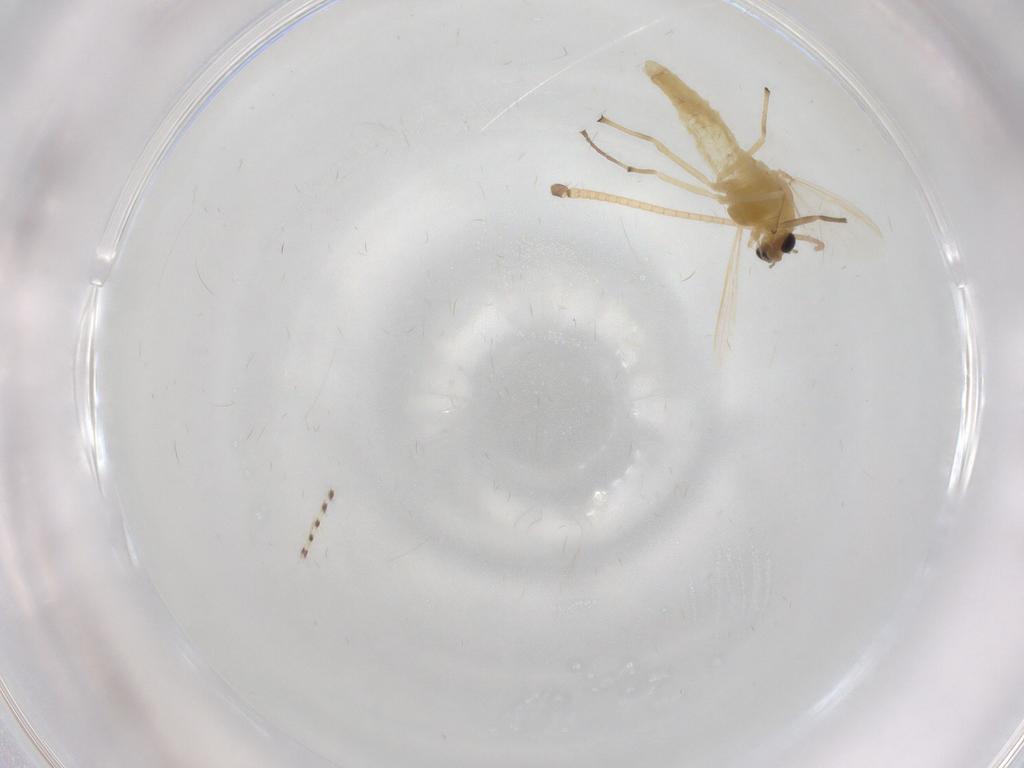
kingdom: Animalia
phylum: Arthropoda
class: Insecta
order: Diptera
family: Chironomidae
